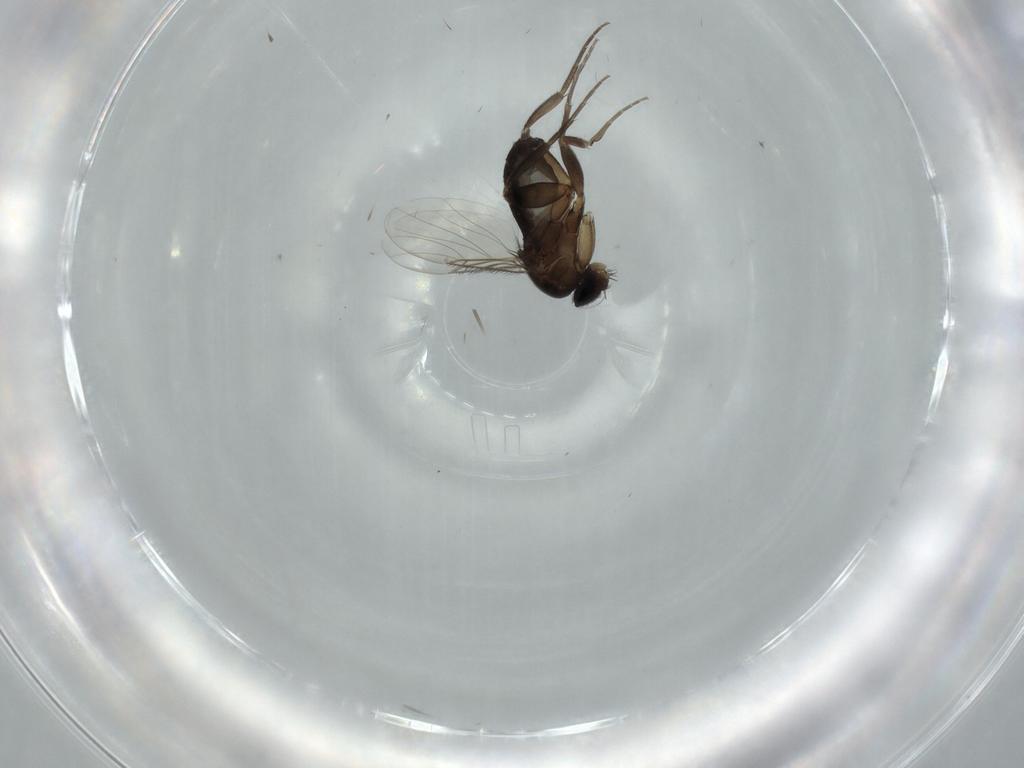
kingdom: Animalia
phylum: Arthropoda
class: Insecta
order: Diptera
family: Phoridae
